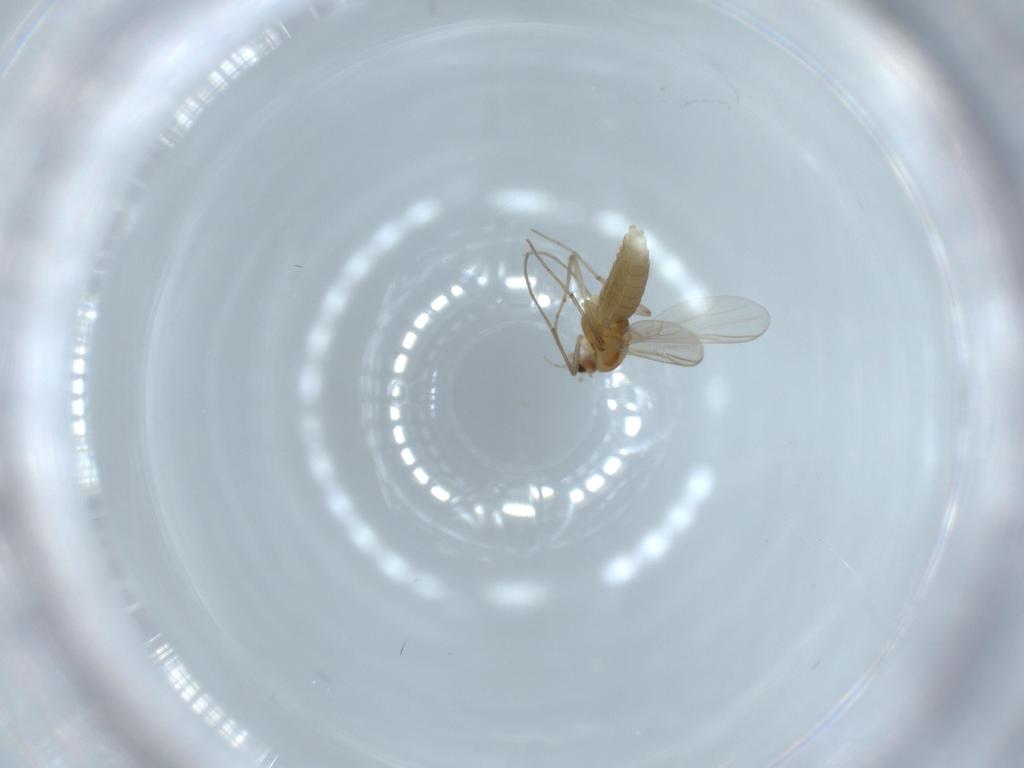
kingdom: Animalia
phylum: Arthropoda
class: Insecta
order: Diptera
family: Chironomidae
